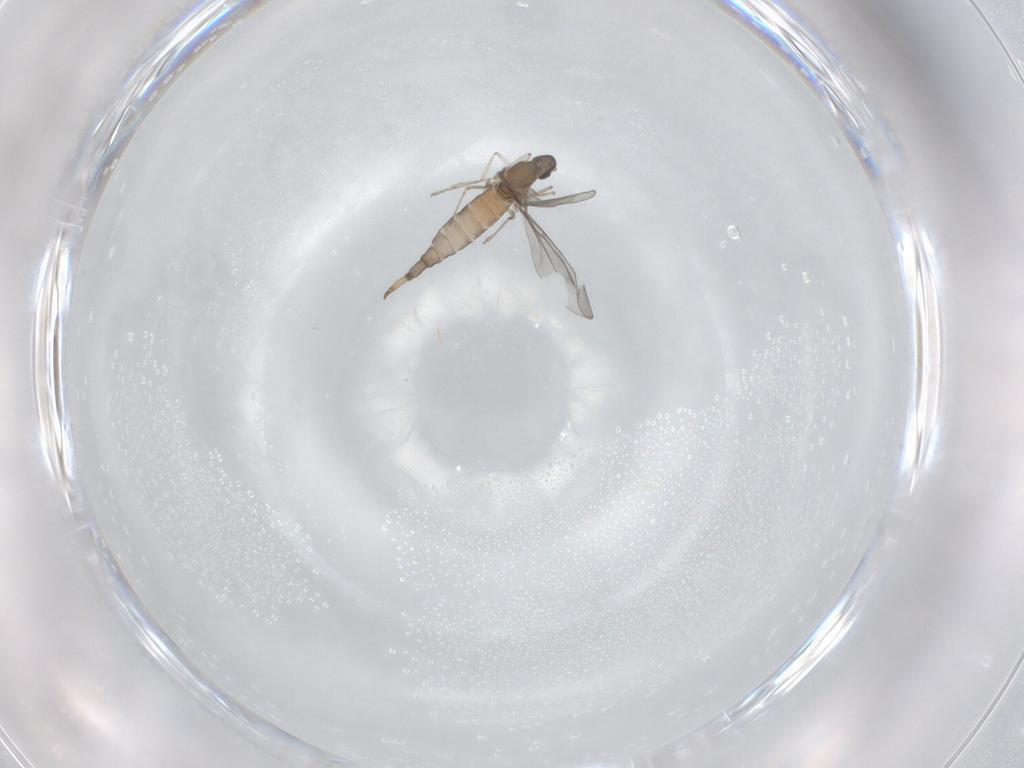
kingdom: Animalia
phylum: Arthropoda
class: Insecta
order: Diptera
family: Cecidomyiidae
